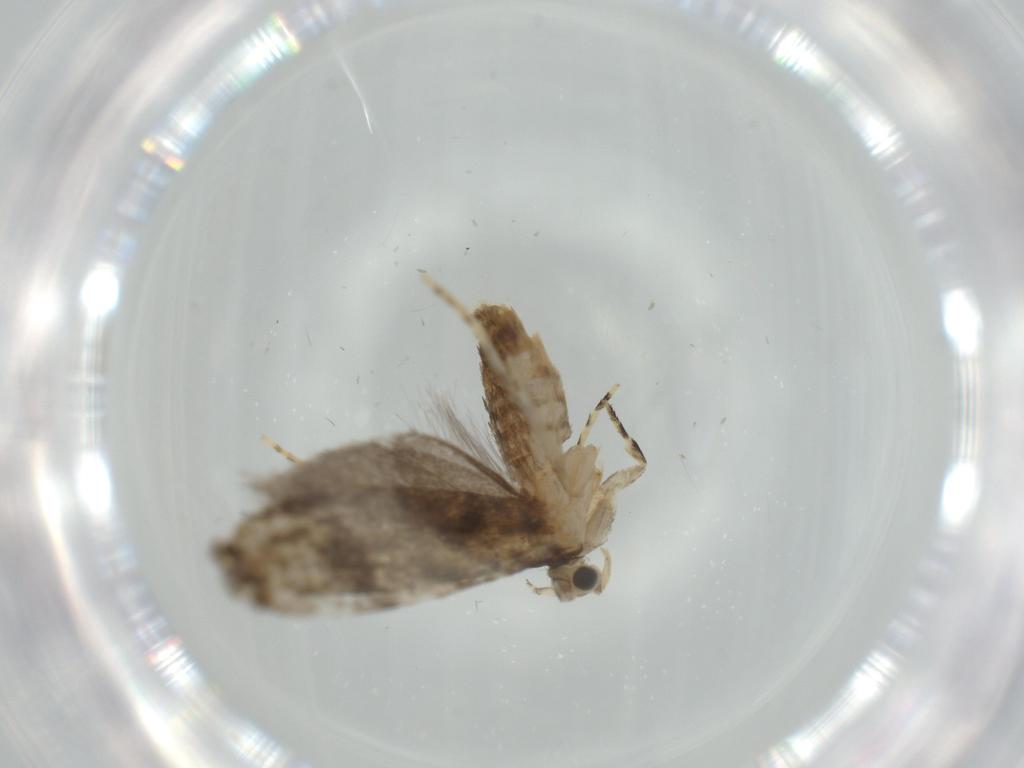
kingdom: Animalia
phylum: Arthropoda
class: Insecta
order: Lepidoptera
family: Tineidae
